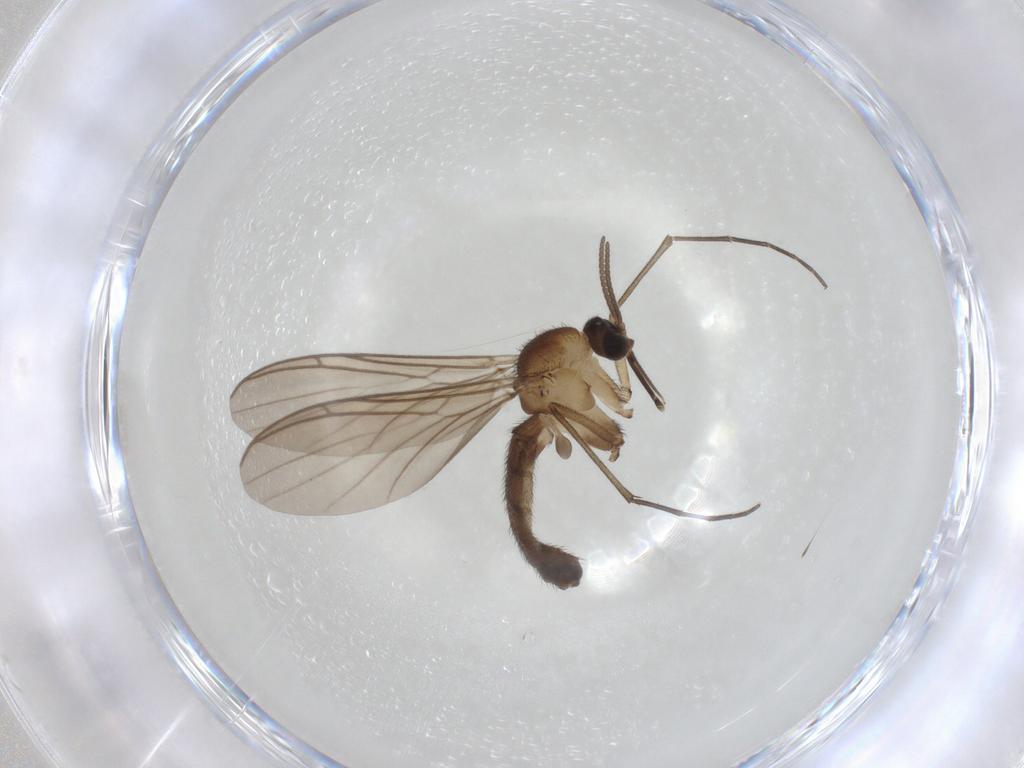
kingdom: Animalia
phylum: Arthropoda
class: Insecta
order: Diptera
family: Keroplatidae
